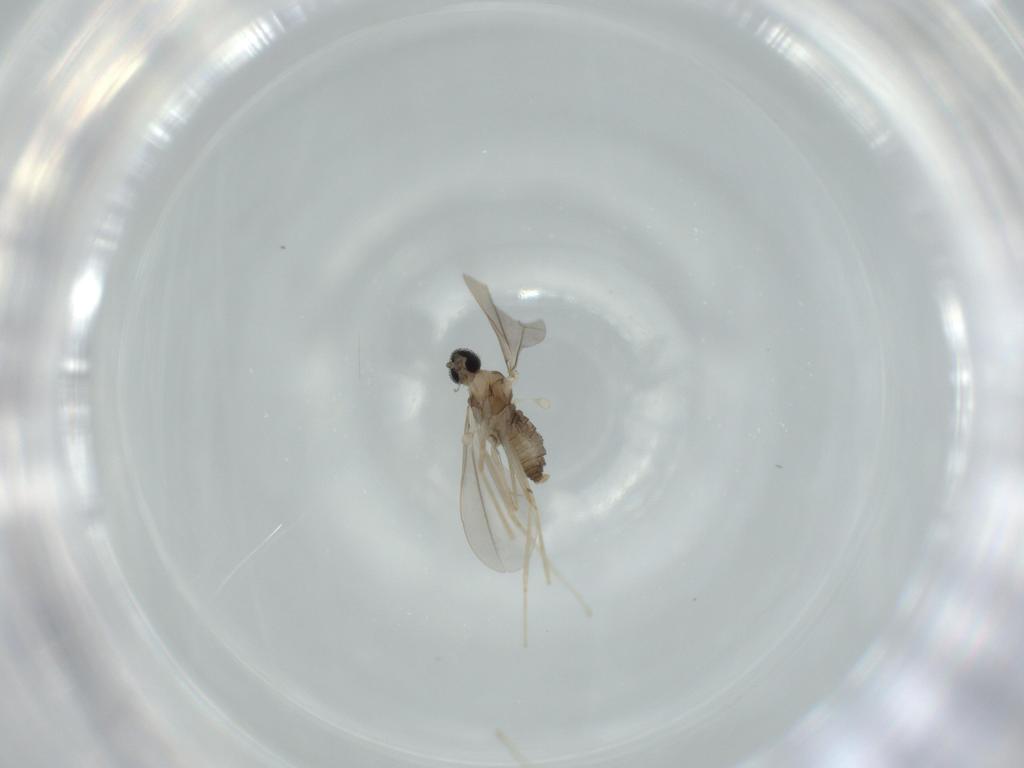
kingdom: Animalia
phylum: Arthropoda
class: Insecta
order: Diptera
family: Cecidomyiidae
